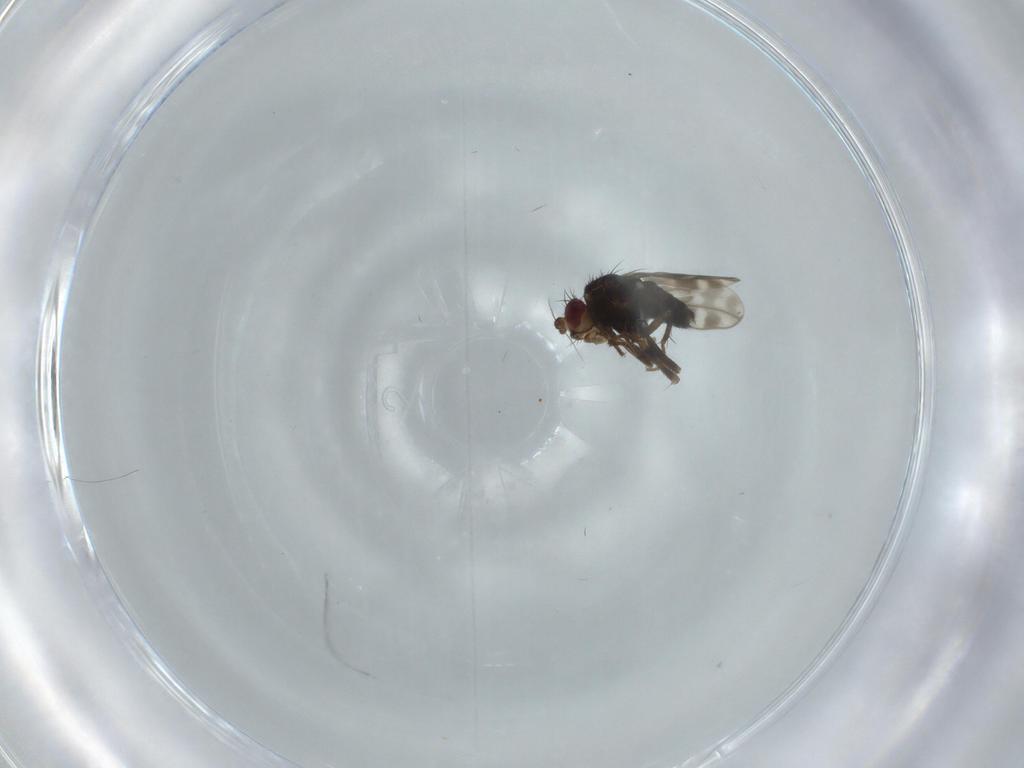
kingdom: Animalia
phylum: Arthropoda
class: Insecta
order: Diptera
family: Sphaeroceridae
